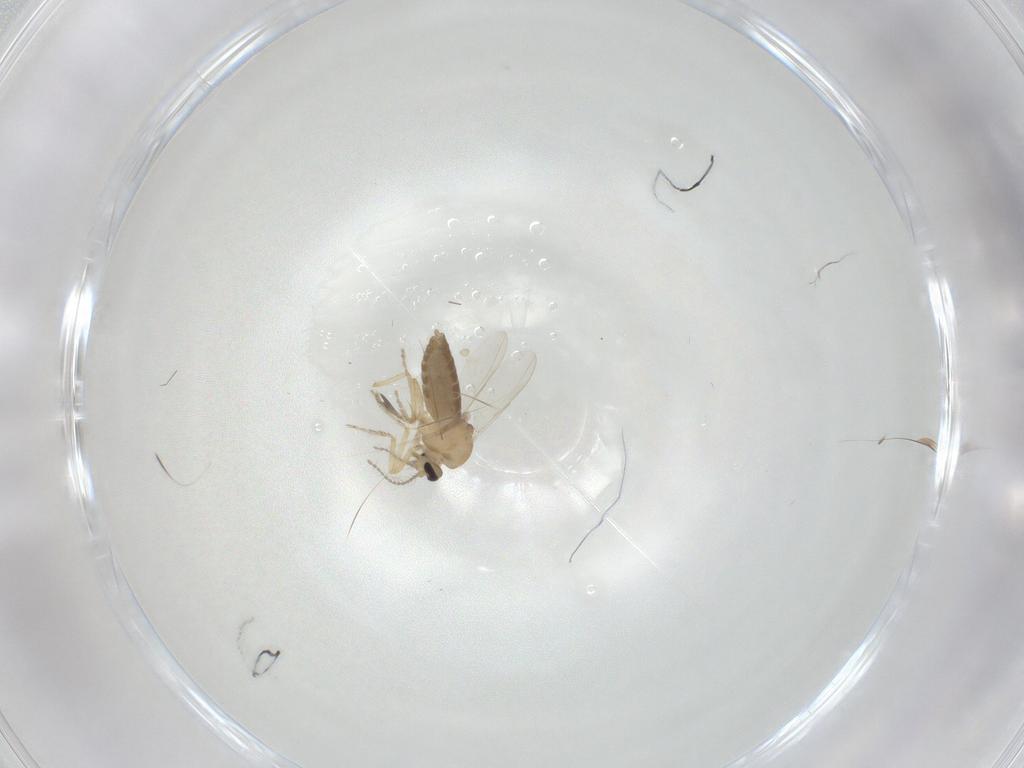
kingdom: Animalia
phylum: Arthropoda
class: Insecta
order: Diptera
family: Ceratopogonidae
